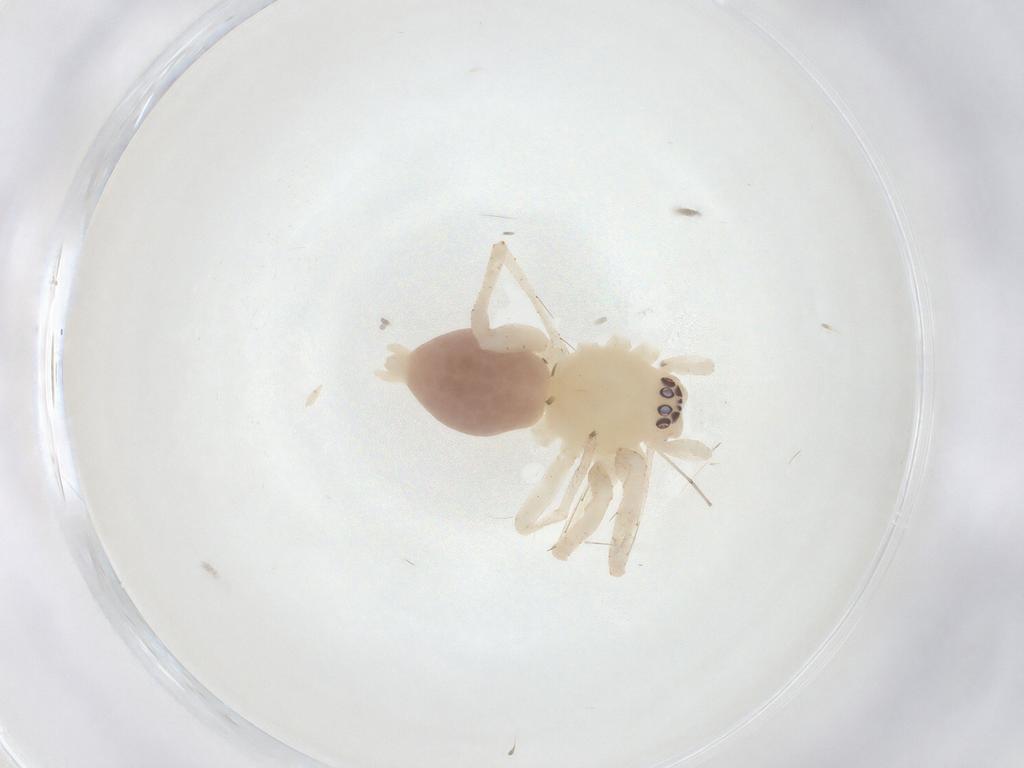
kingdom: Animalia
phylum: Arthropoda
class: Arachnida
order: Araneae
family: Anyphaenidae
